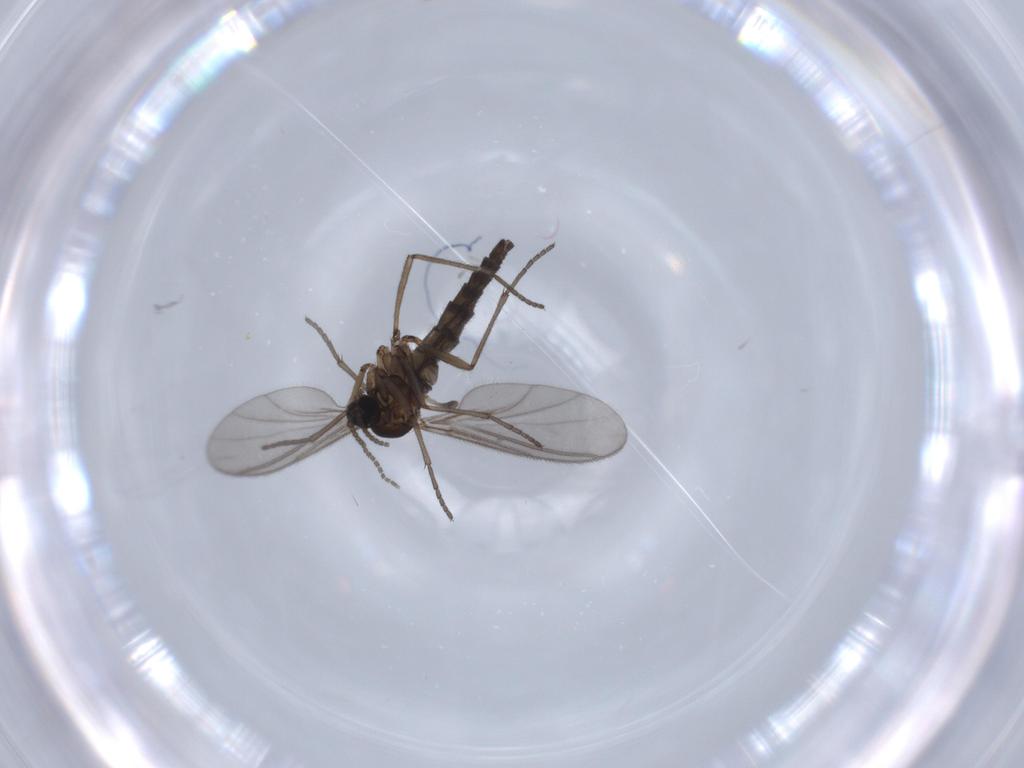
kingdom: Animalia
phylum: Arthropoda
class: Insecta
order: Diptera
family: Sciaridae
